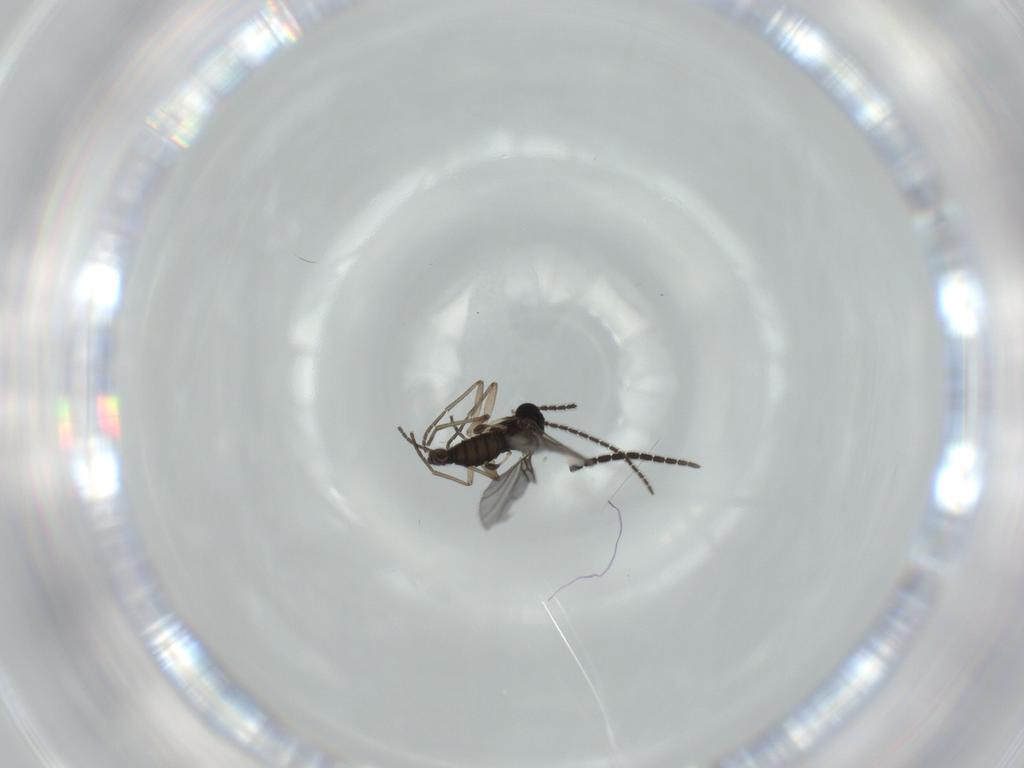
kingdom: Animalia
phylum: Arthropoda
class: Insecta
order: Diptera
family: Sciaridae
